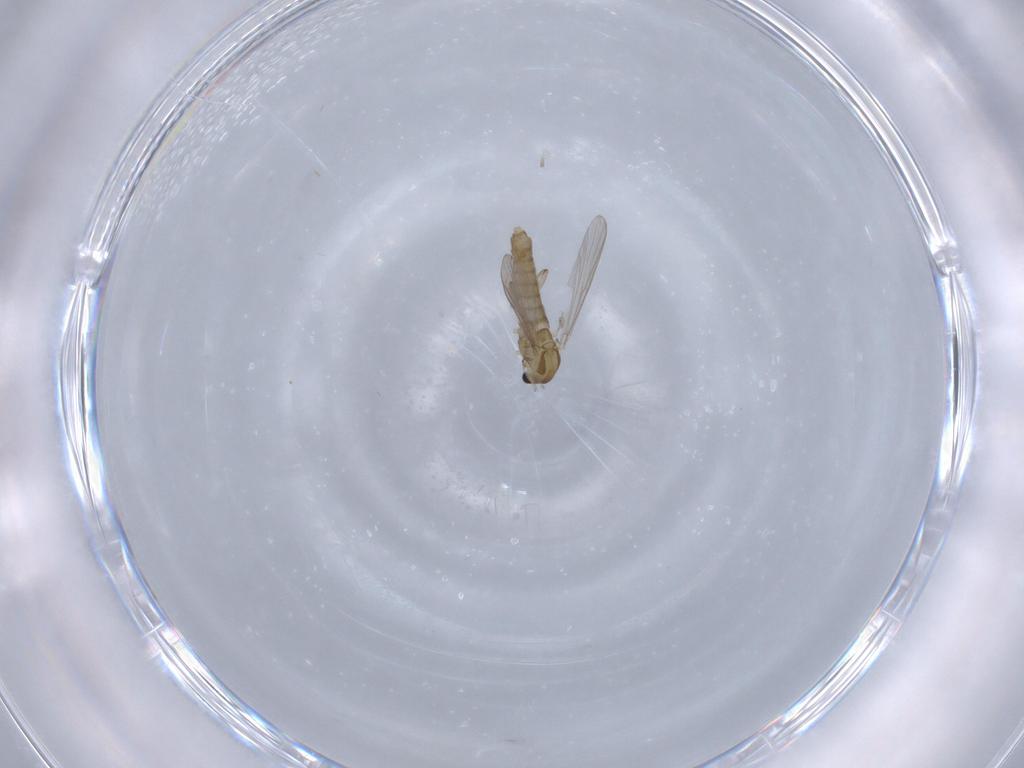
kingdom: Animalia
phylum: Arthropoda
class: Insecta
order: Diptera
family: Chironomidae
